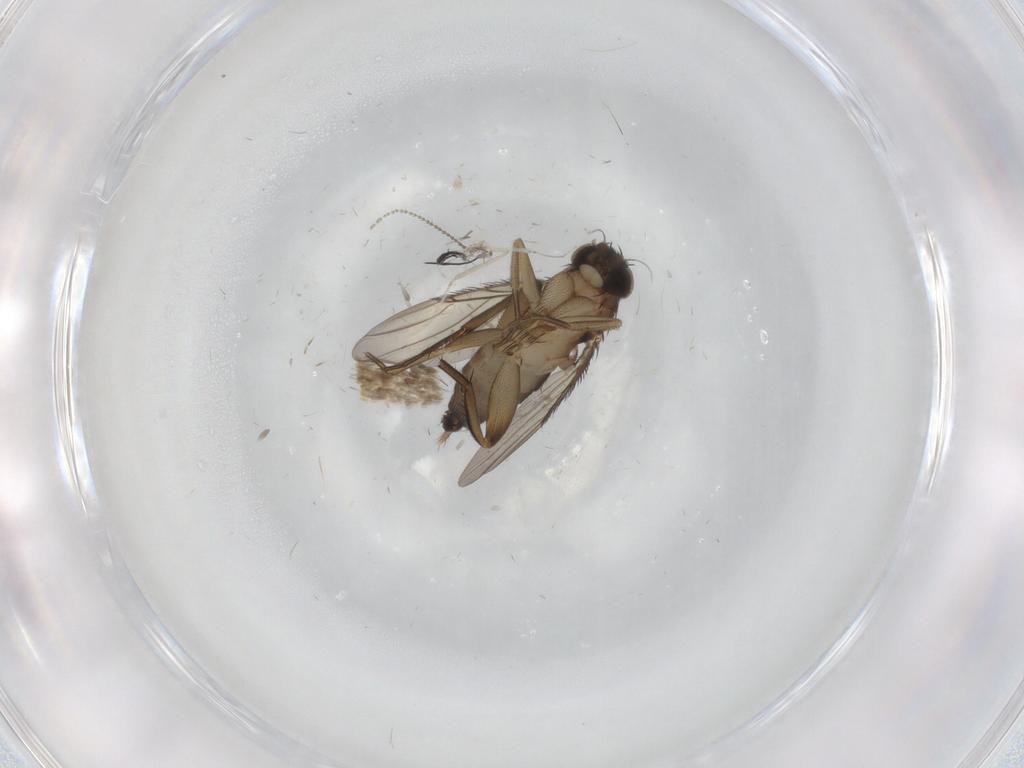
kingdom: Animalia
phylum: Arthropoda
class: Insecta
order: Diptera
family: Phoridae
